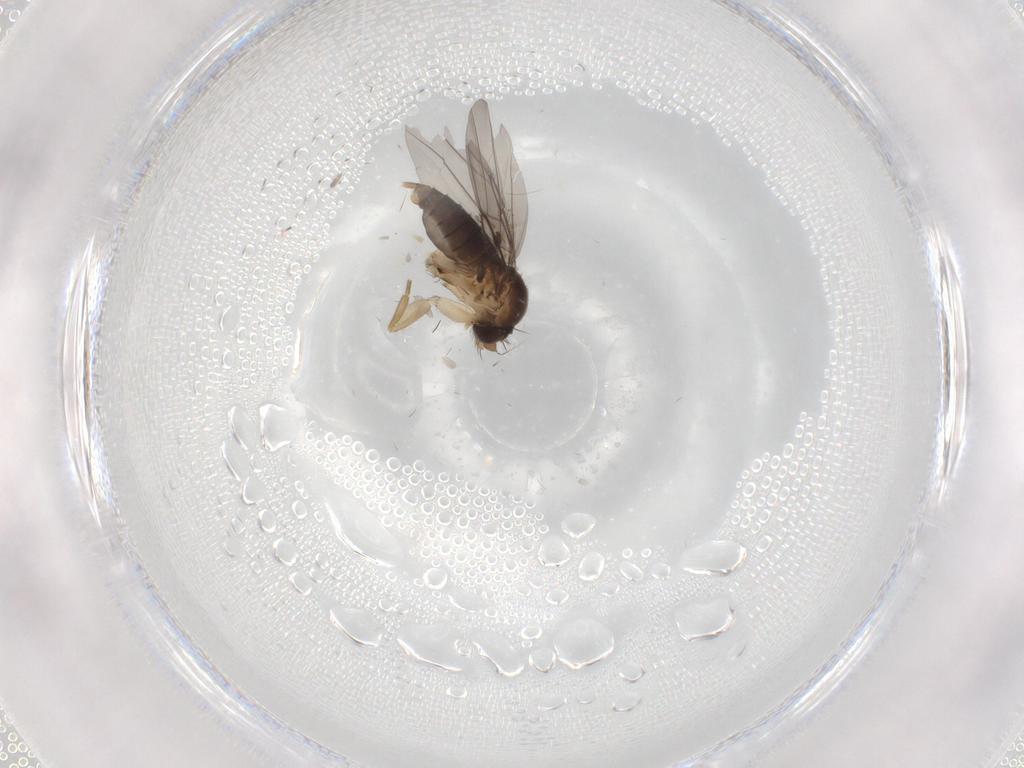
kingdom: Animalia
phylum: Arthropoda
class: Insecta
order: Diptera
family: Phoridae
